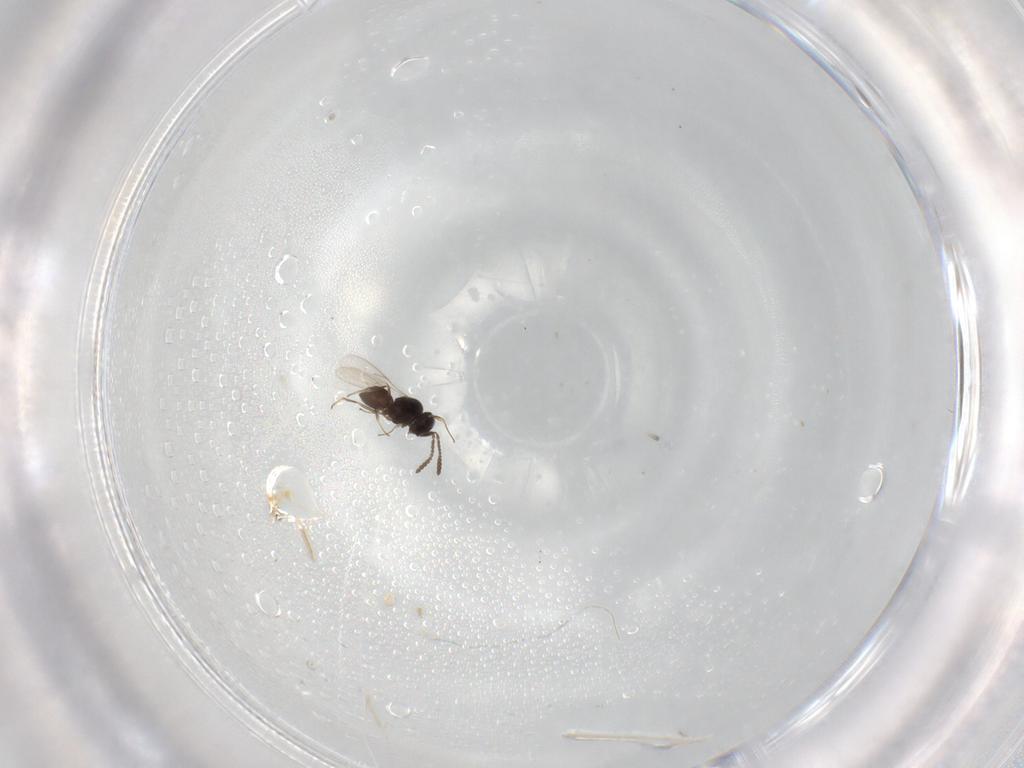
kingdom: Animalia
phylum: Arthropoda
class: Insecta
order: Hymenoptera
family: Scelionidae
